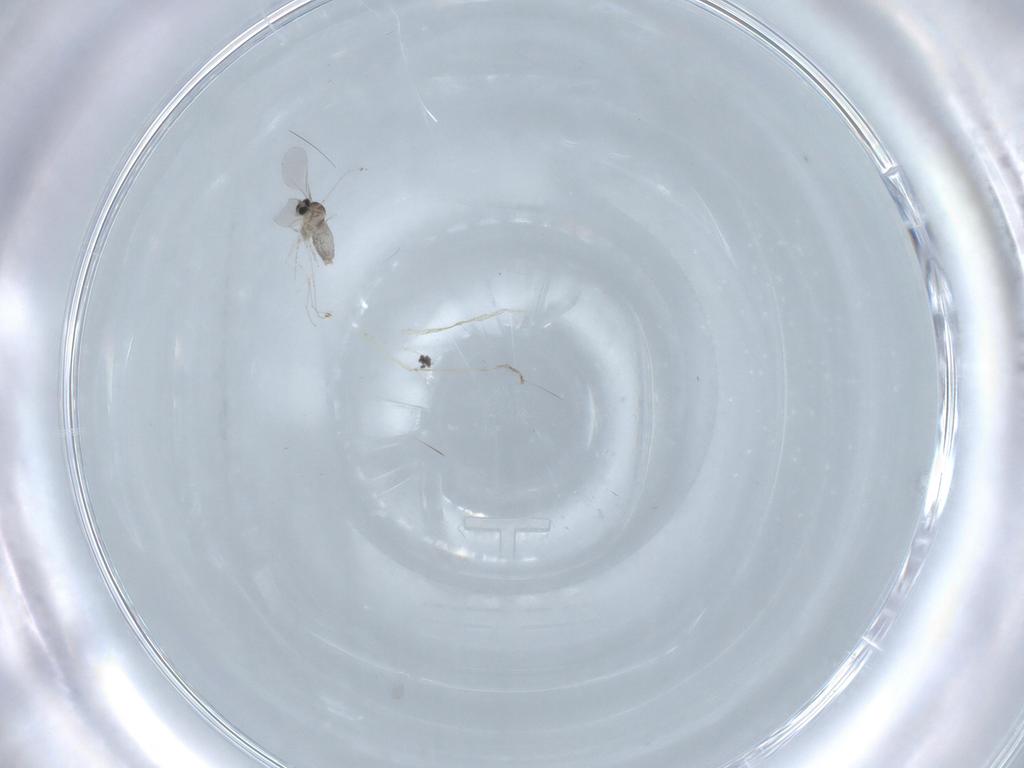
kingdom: Animalia
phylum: Arthropoda
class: Insecta
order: Diptera
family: Cecidomyiidae
